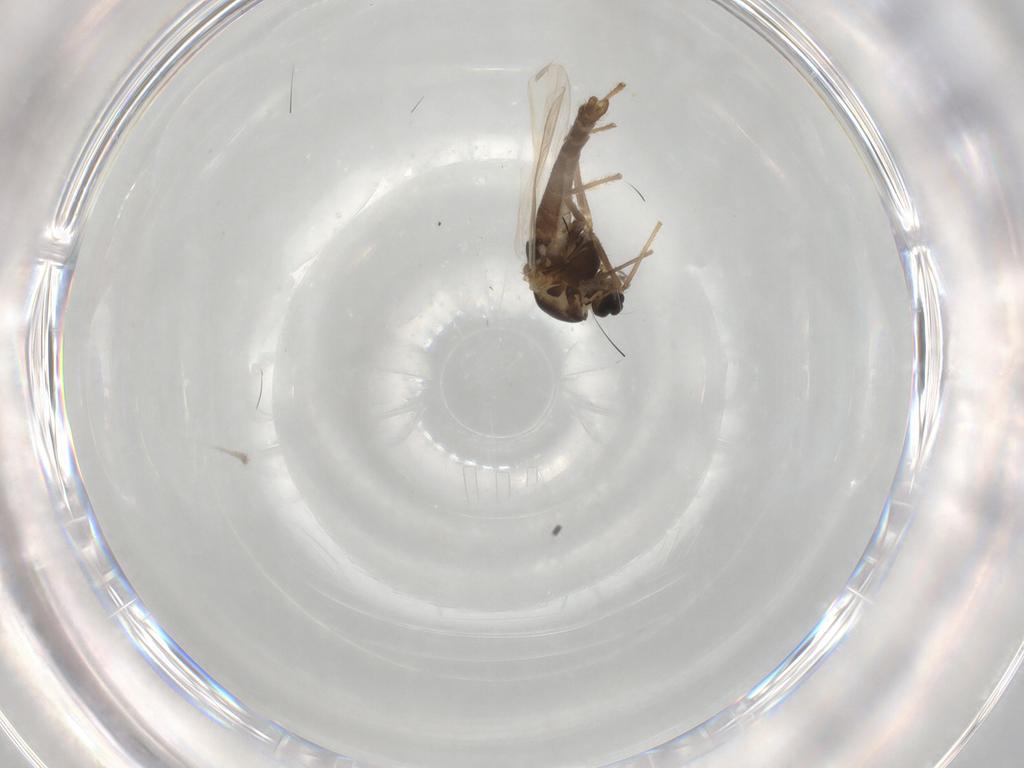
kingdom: Animalia
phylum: Arthropoda
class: Insecta
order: Diptera
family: Chironomidae
